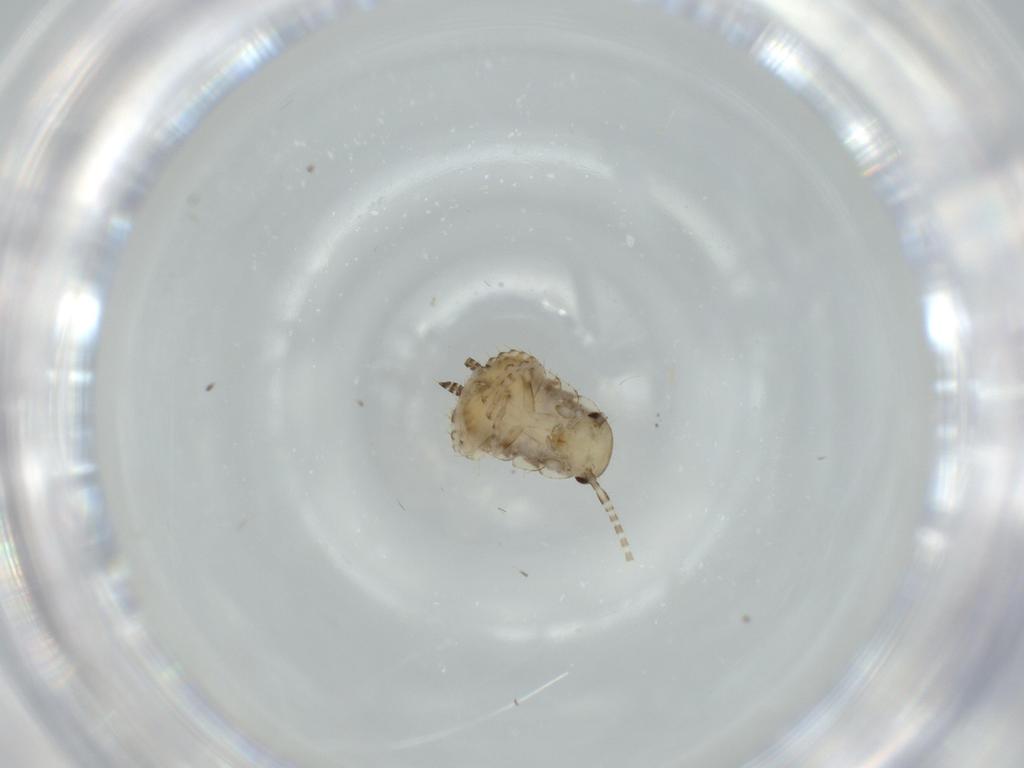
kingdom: Animalia
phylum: Arthropoda
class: Insecta
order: Blattodea
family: Ectobiidae
